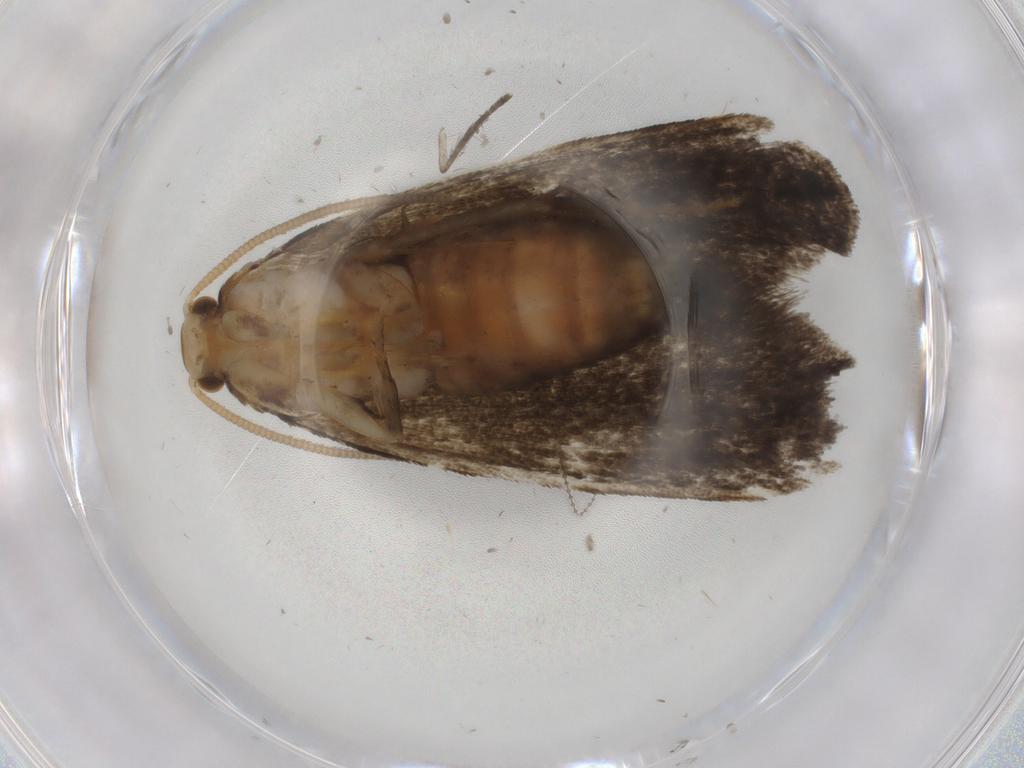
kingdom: Animalia
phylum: Arthropoda
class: Insecta
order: Lepidoptera
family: Dryadaulidae
